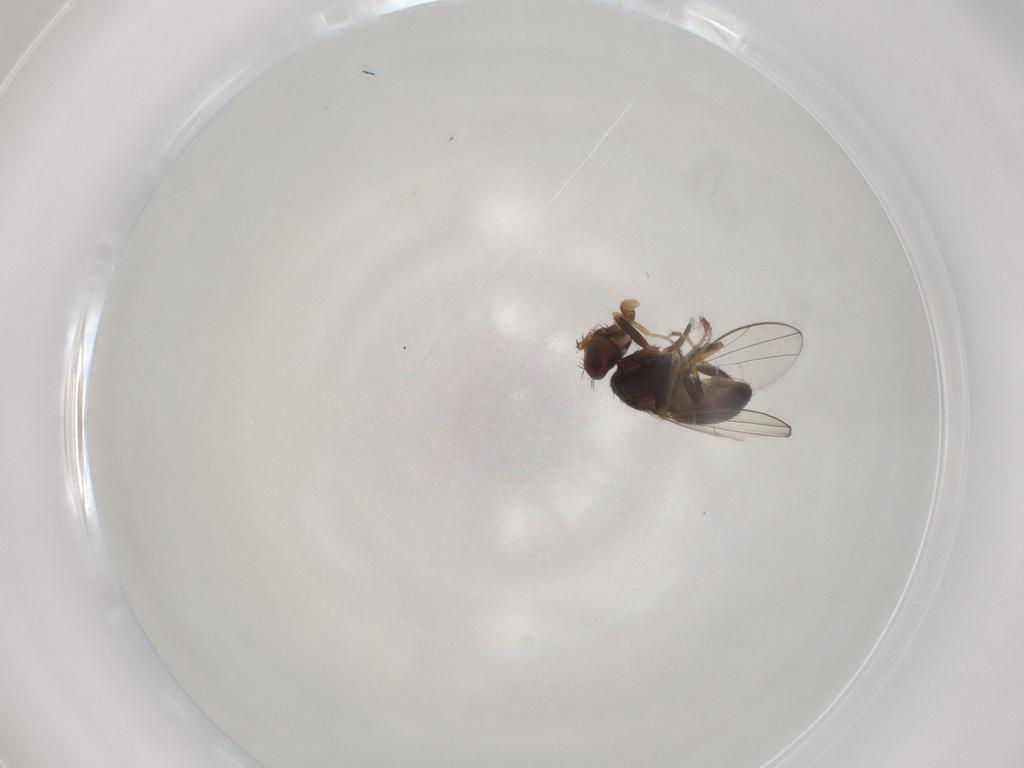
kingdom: Animalia
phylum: Arthropoda
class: Insecta
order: Diptera
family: Ephydridae
